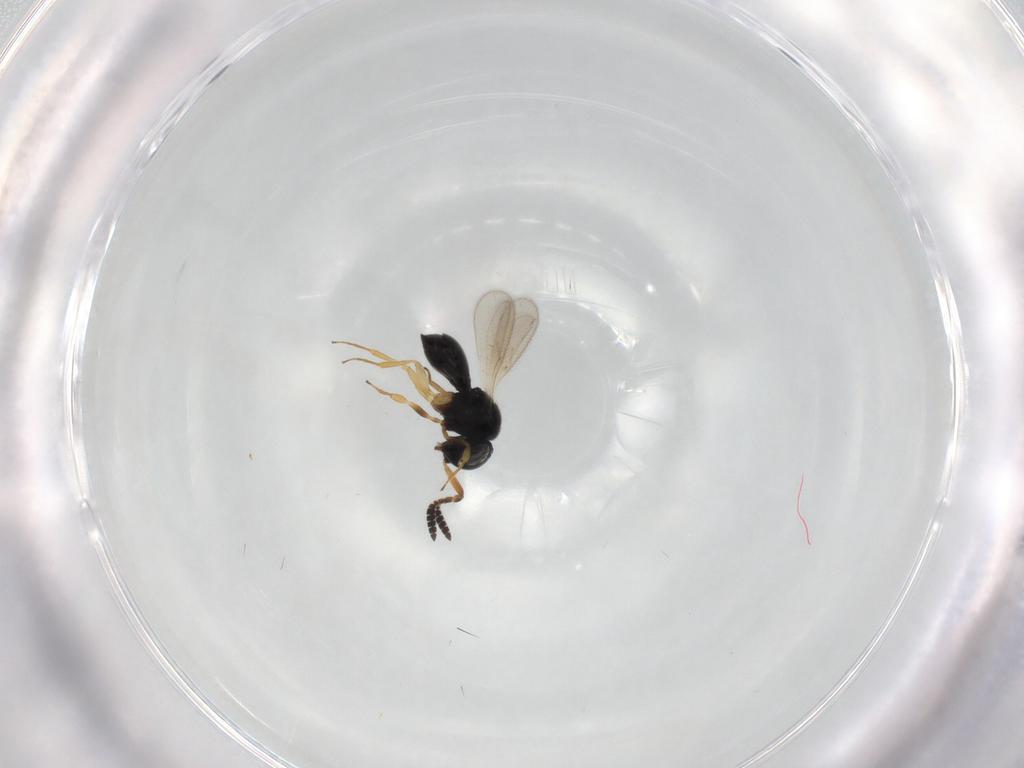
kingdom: Animalia
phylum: Arthropoda
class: Insecta
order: Hymenoptera
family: Scelionidae
